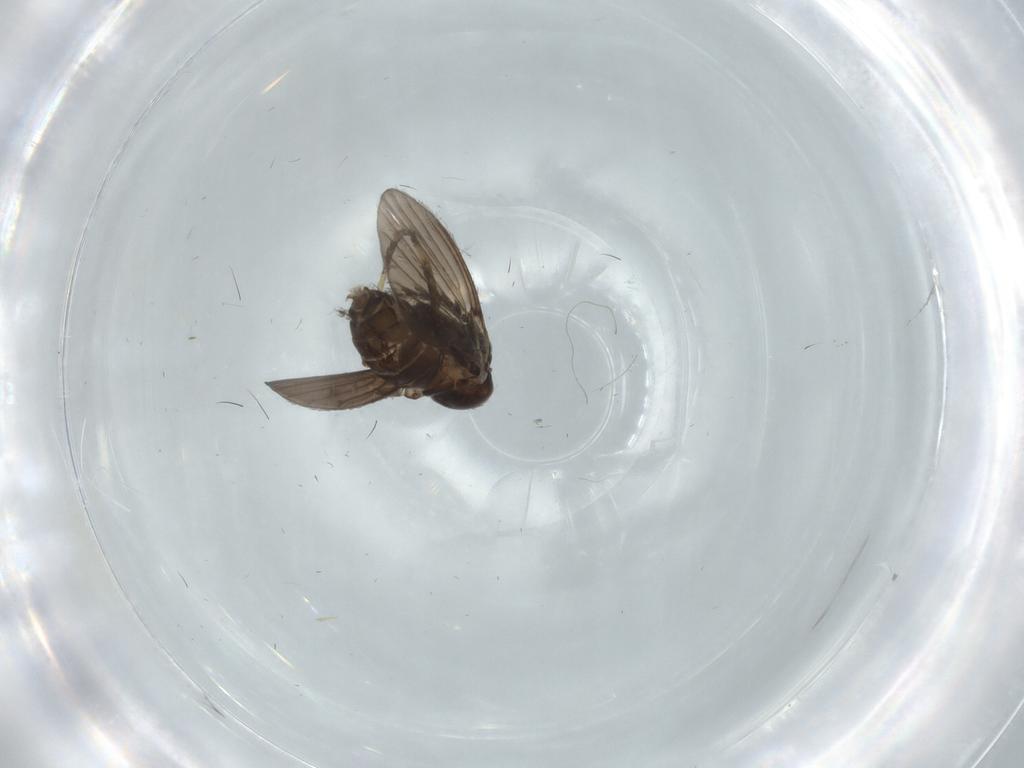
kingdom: Animalia
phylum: Arthropoda
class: Insecta
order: Diptera
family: Psychodidae
